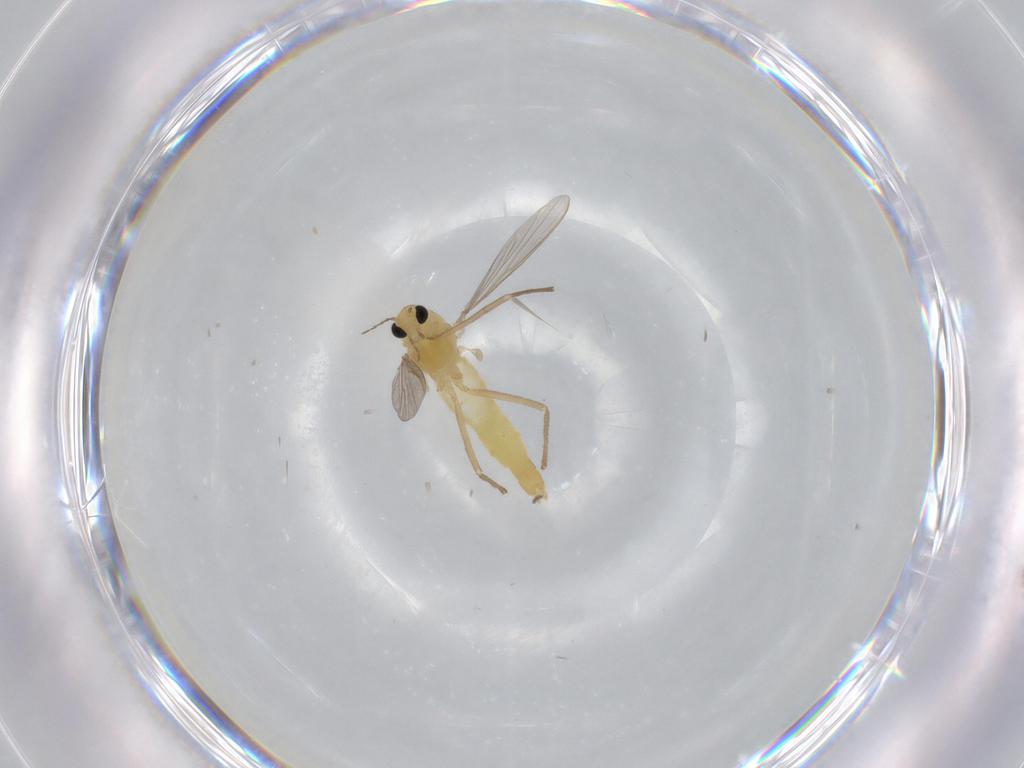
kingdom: Animalia
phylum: Arthropoda
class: Insecta
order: Diptera
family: Chironomidae
